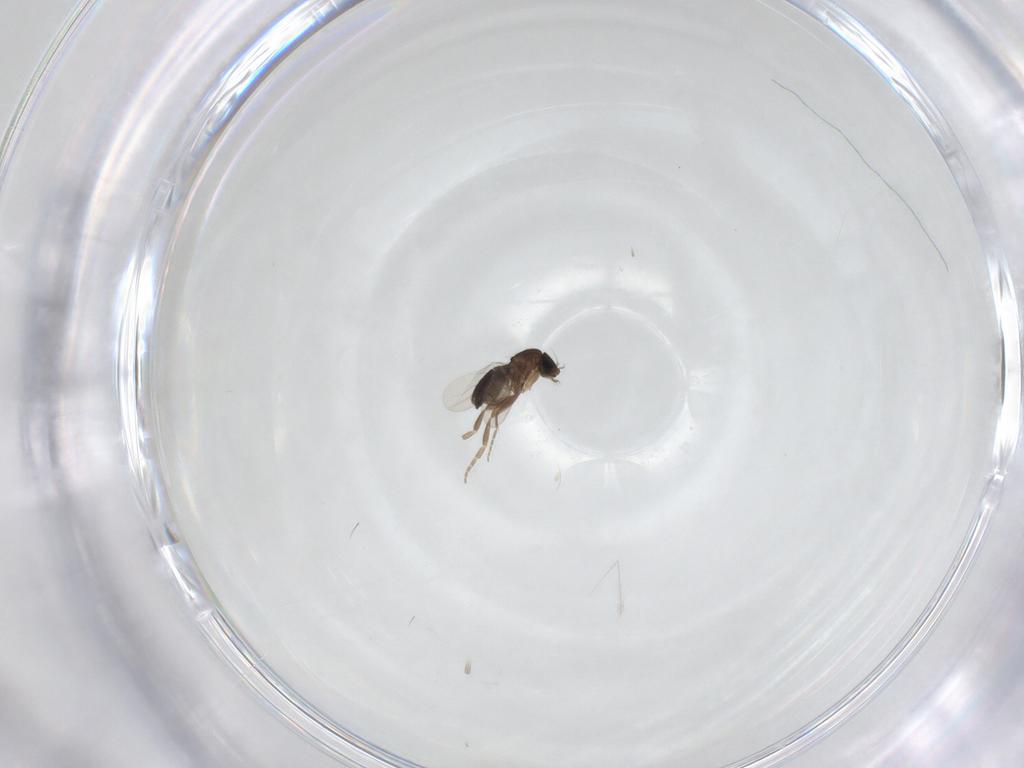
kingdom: Animalia
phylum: Arthropoda
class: Insecta
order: Diptera
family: Phoridae
